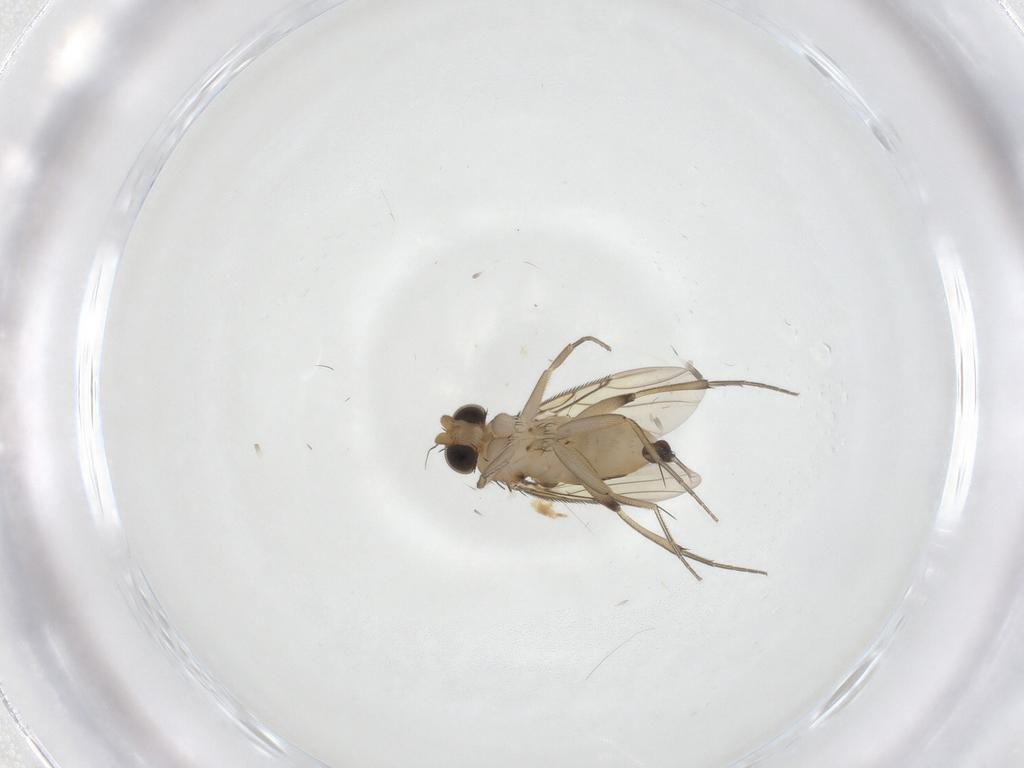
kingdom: Animalia
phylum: Arthropoda
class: Insecta
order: Diptera
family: Phoridae
